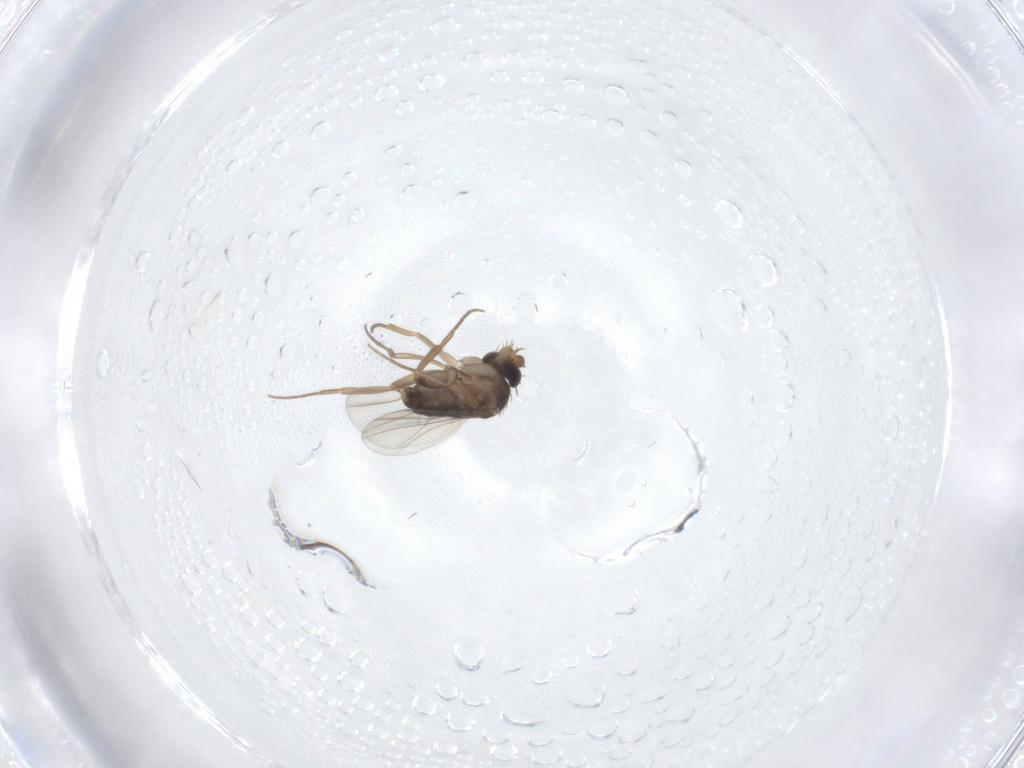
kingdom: Animalia
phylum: Arthropoda
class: Insecta
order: Diptera
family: Phoridae
